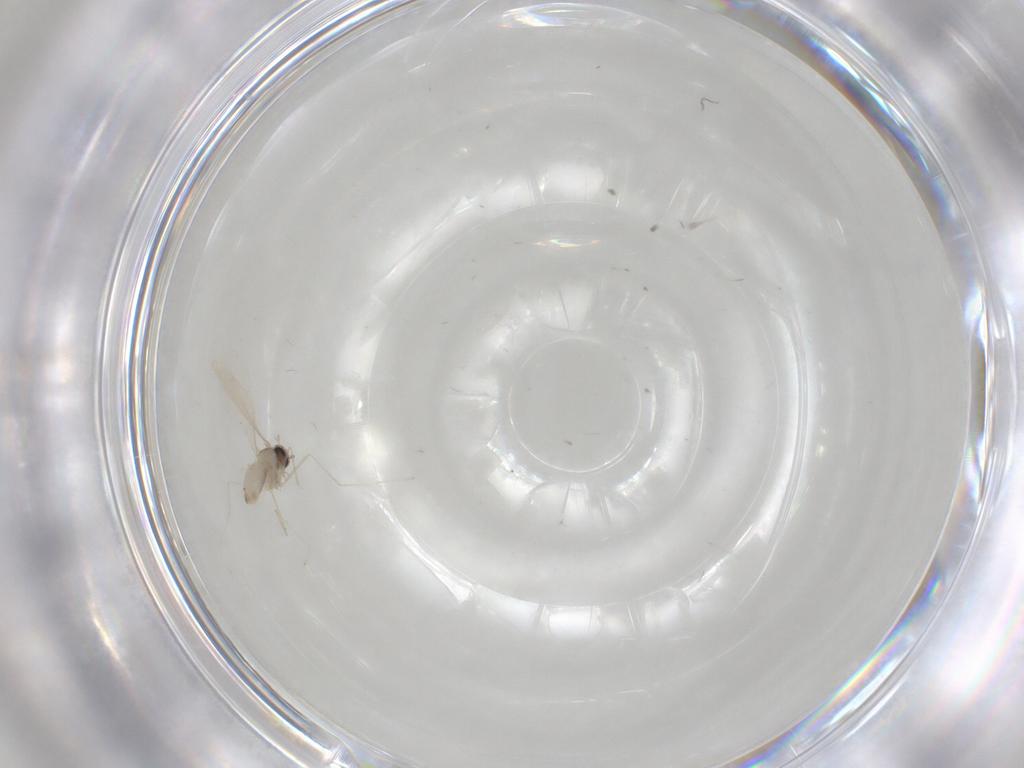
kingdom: Animalia
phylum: Arthropoda
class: Insecta
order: Diptera
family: Cecidomyiidae
